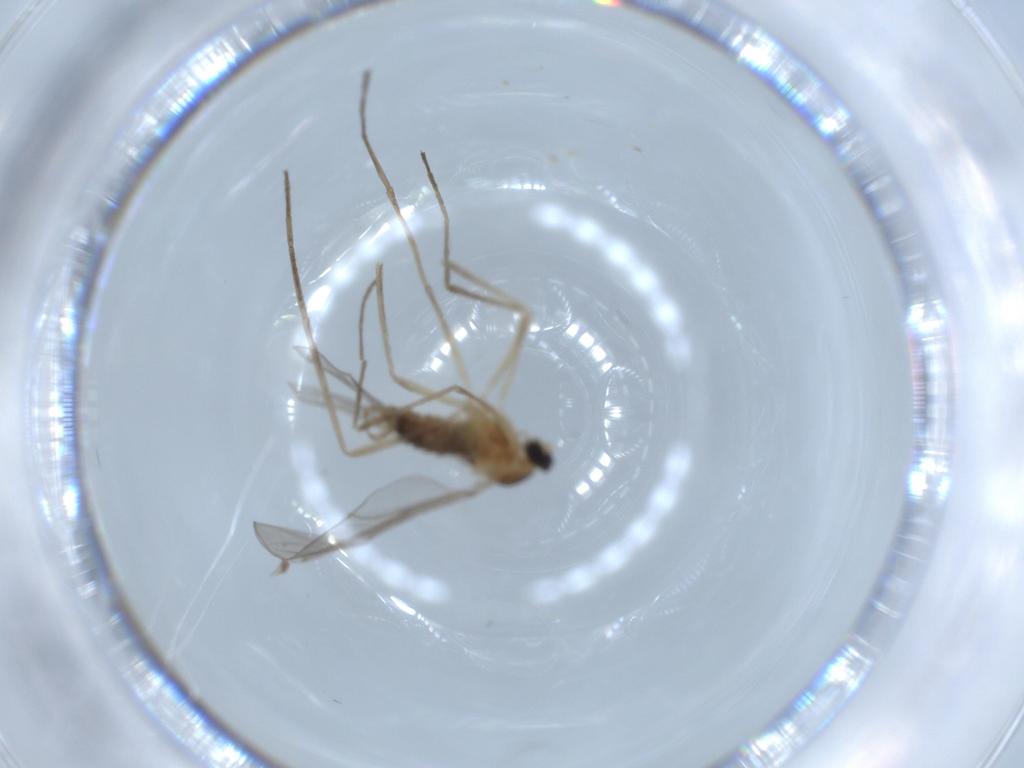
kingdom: Animalia
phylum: Arthropoda
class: Insecta
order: Diptera
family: Cecidomyiidae
